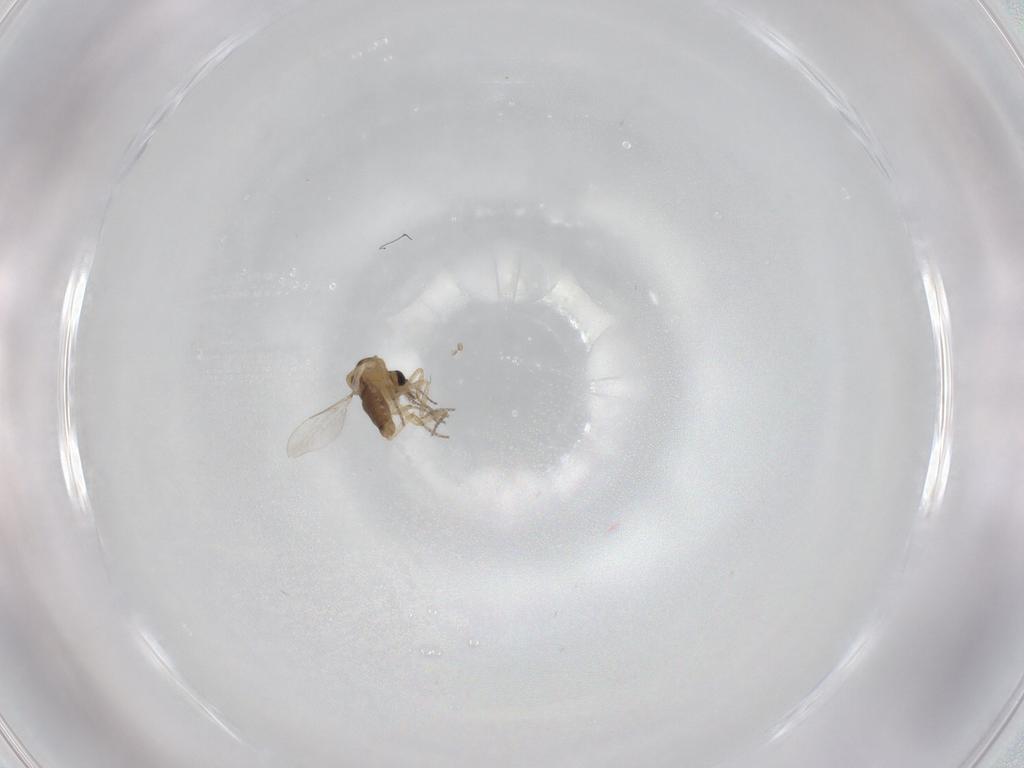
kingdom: Animalia
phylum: Arthropoda
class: Insecta
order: Diptera
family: Ceratopogonidae
